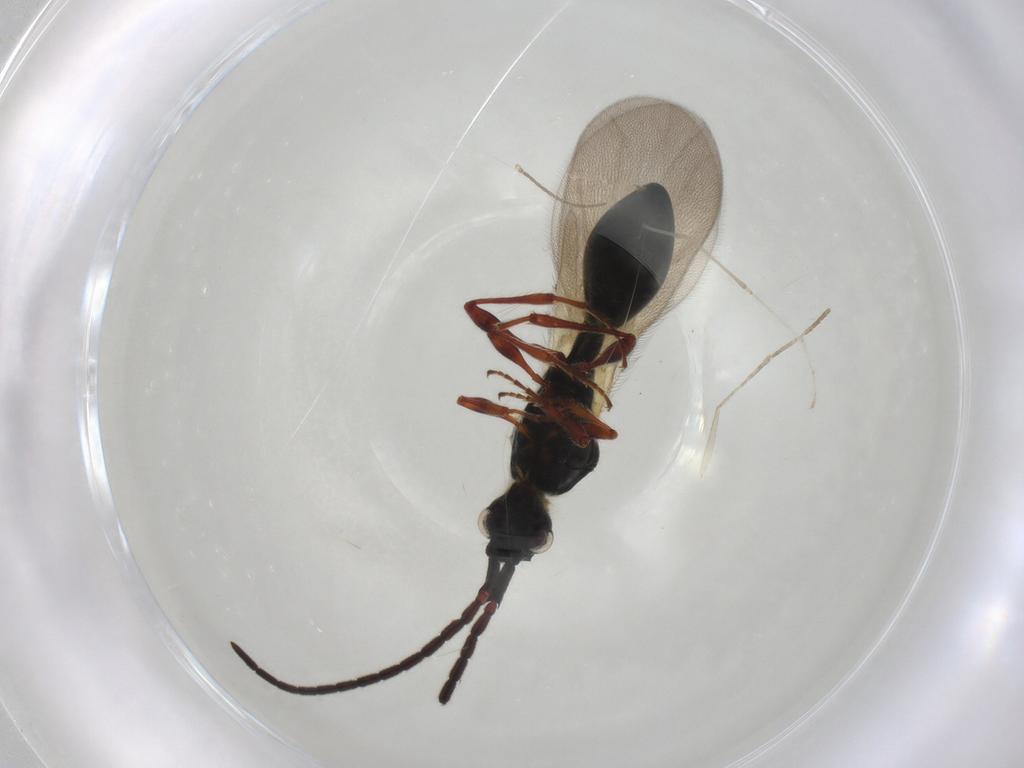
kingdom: Animalia
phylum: Arthropoda
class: Insecta
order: Hymenoptera
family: Diapriidae
